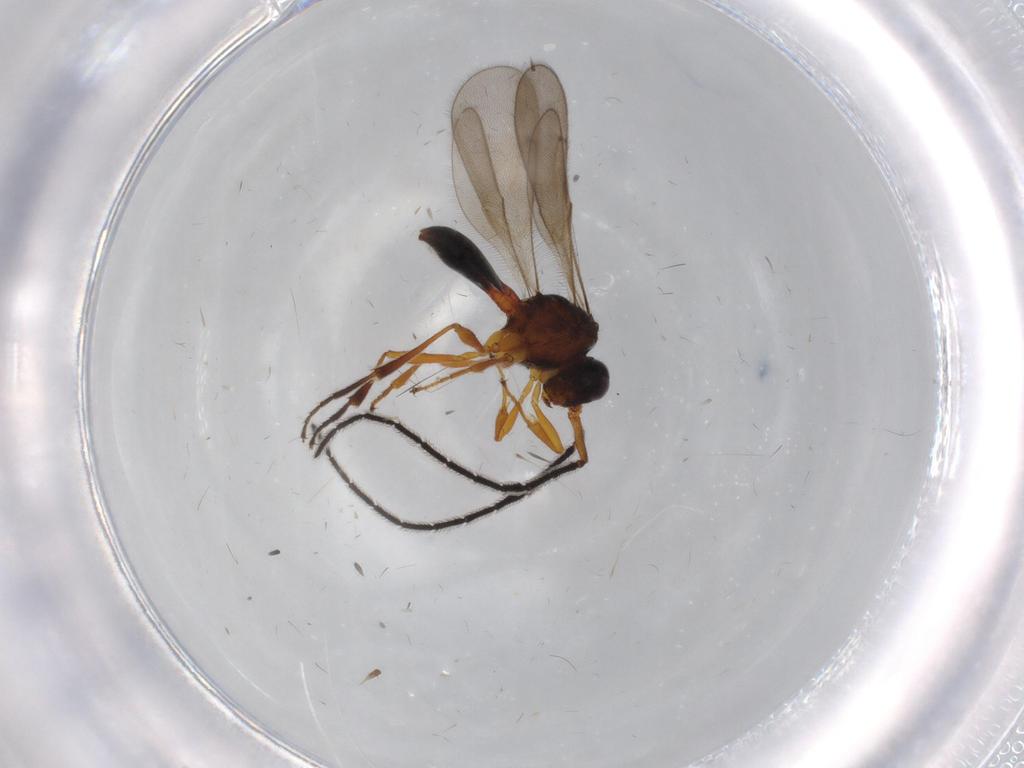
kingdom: Animalia
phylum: Arthropoda
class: Insecta
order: Hymenoptera
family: Scelionidae
